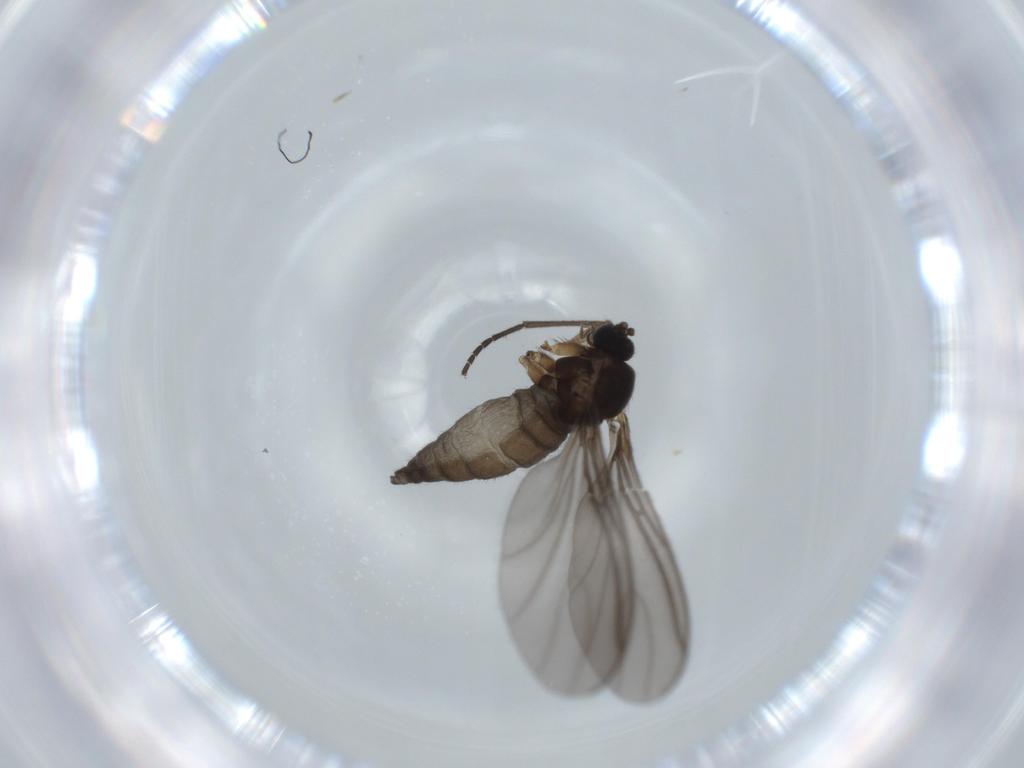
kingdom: Animalia
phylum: Arthropoda
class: Insecta
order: Diptera
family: Sciaridae
